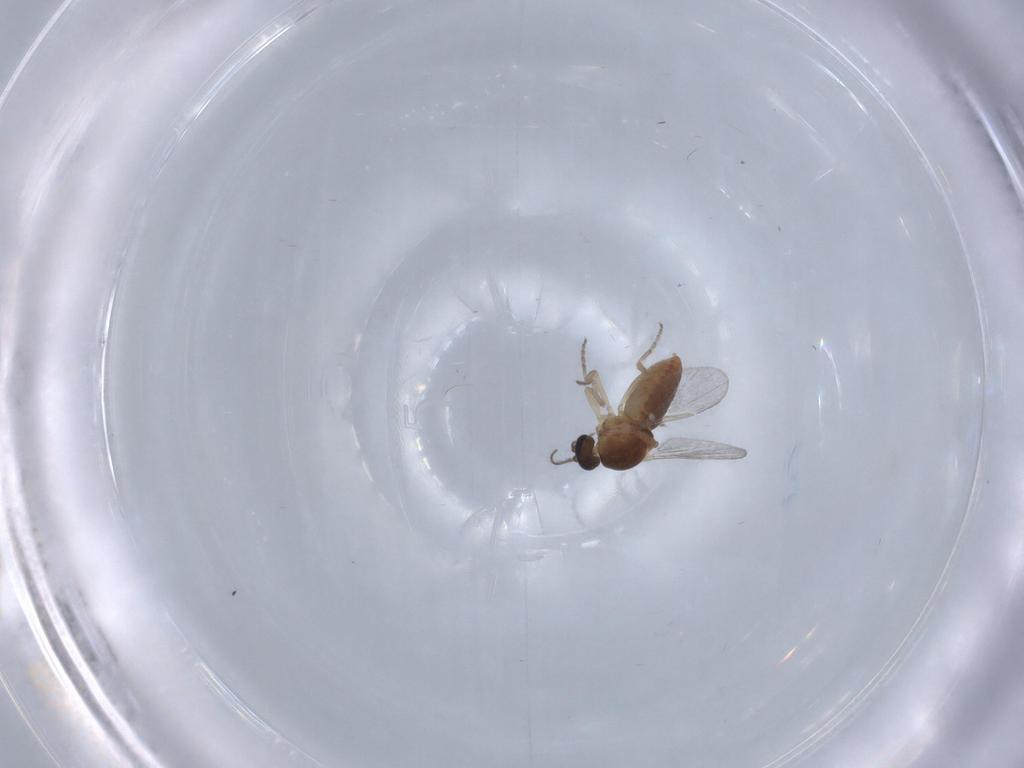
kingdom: Animalia
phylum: Arthropoda
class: Insecta
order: Diptera
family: Ceratopogonidae
